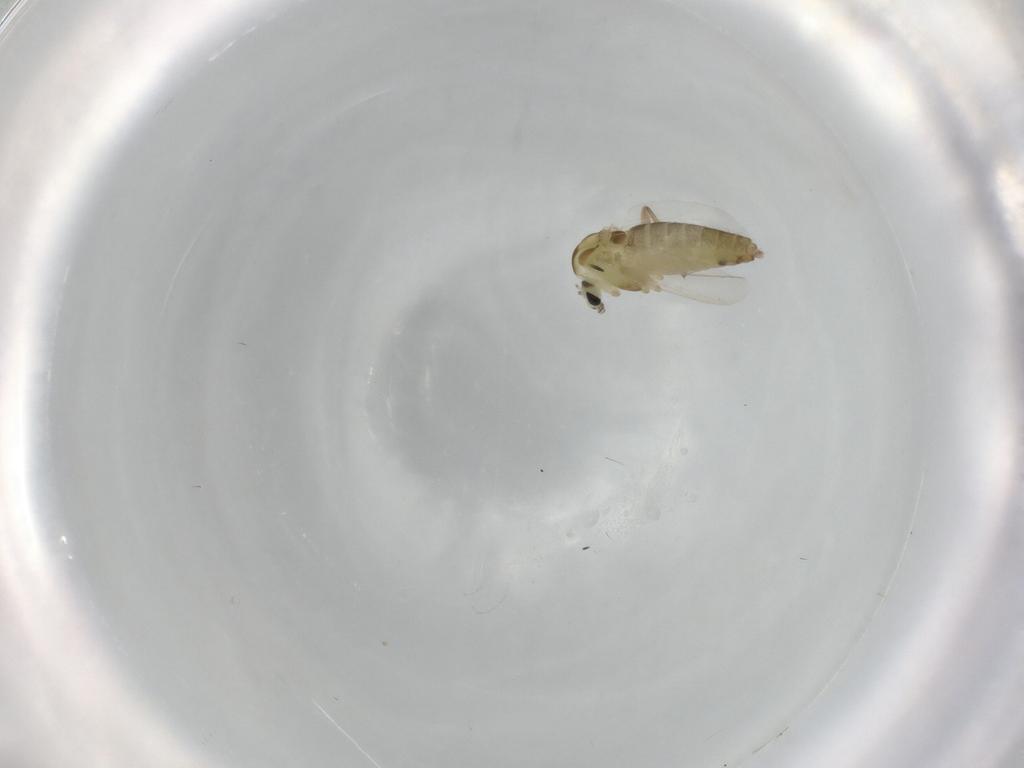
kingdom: Animalia
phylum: Arthropoda
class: Insecta
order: Diptera
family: Chironomidae
